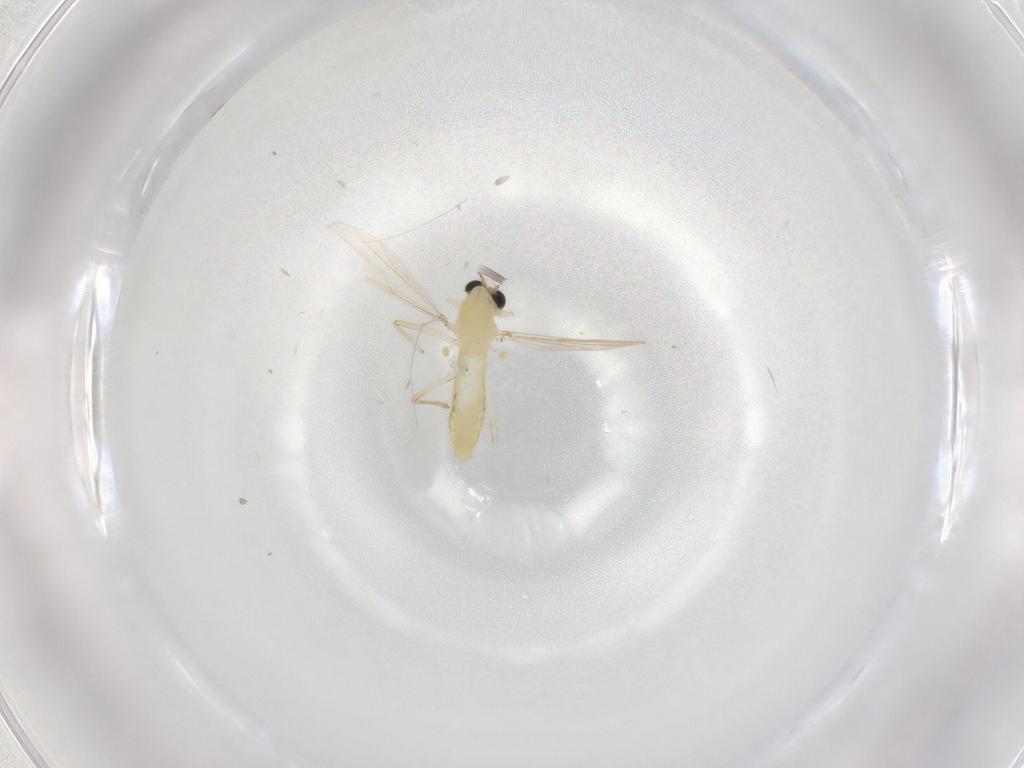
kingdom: Animalia
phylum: Arthropoda
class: Insecta
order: Diptera
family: Chironomidae
